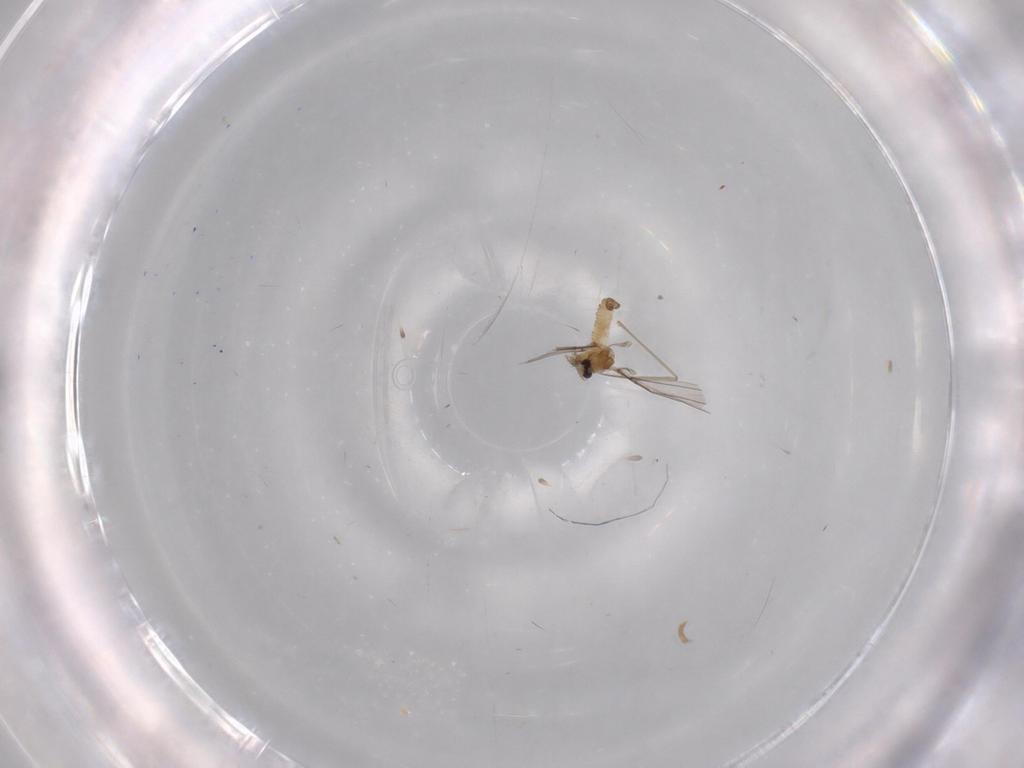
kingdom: Animalia
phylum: Arthropoda
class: Insecta
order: Diptera
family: Cecidomyiidae
